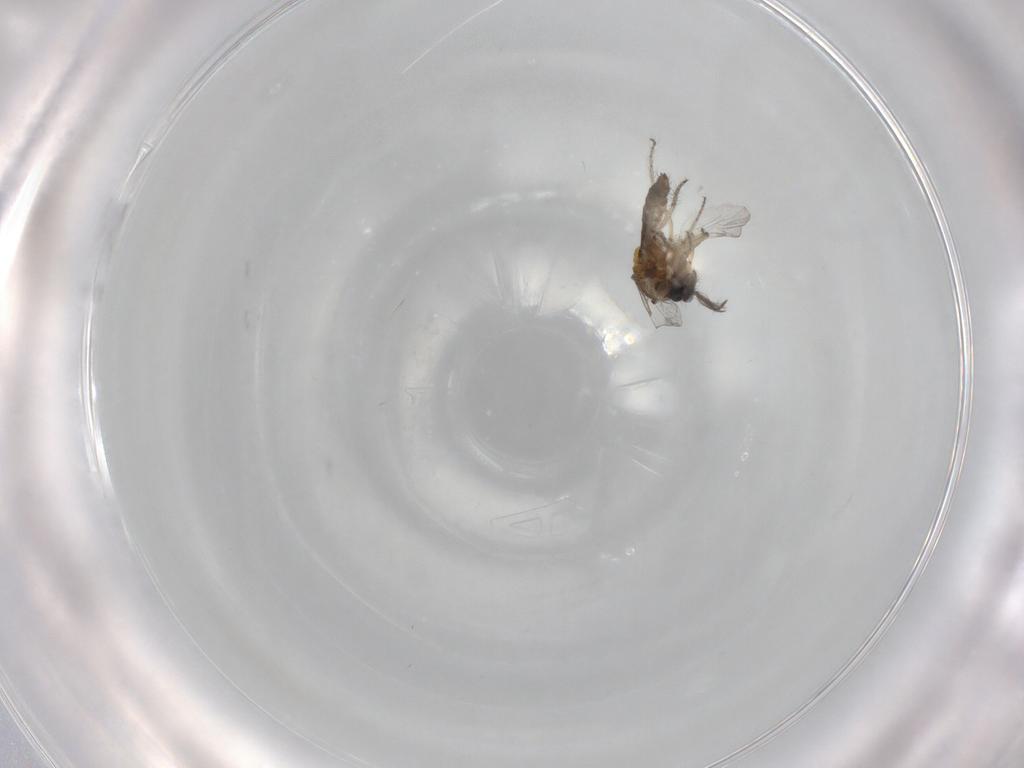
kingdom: Animalia
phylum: Arthropoda
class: Insecta
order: Diptera
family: Ceratopogonidae
